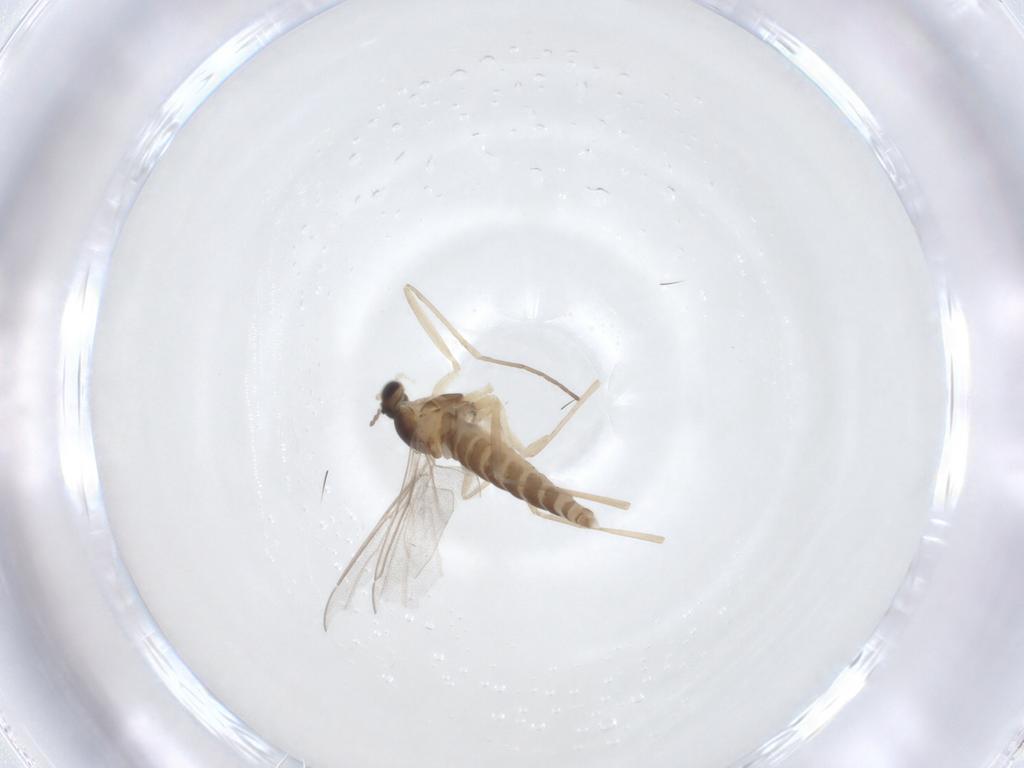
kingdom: Animalia
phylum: Arthropoda
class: Insecta
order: Diptera
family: Cecidomyiidae
